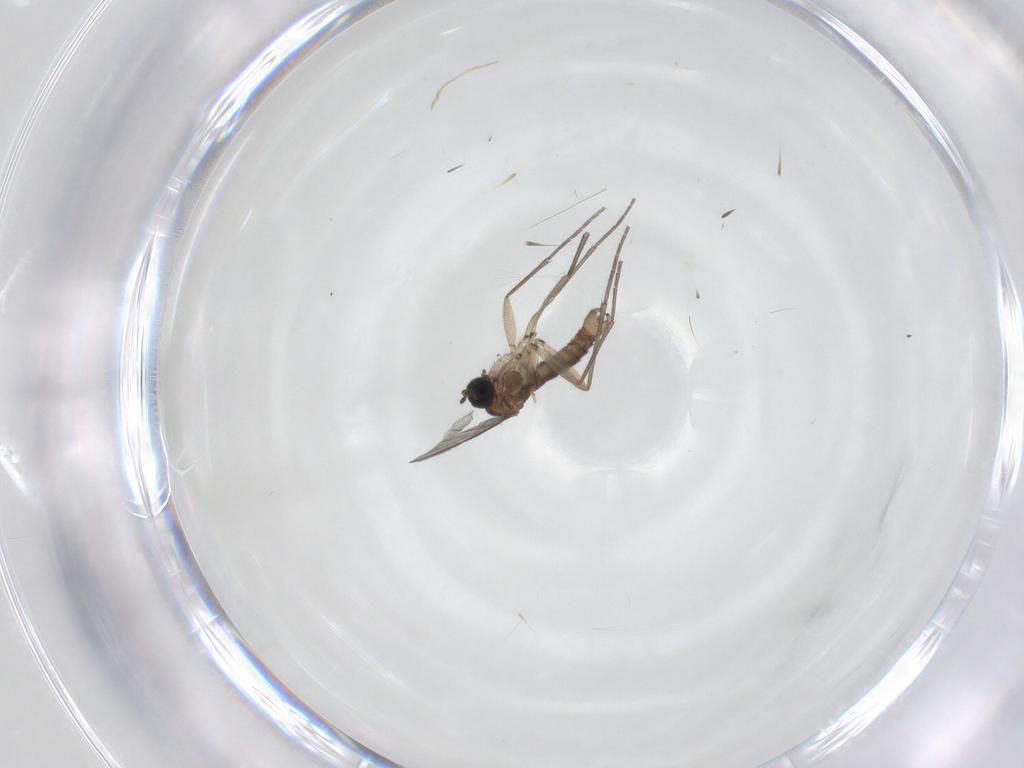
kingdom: Animalia
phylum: Arthropoda
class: Insecta
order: Diptera
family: Sciaridae
